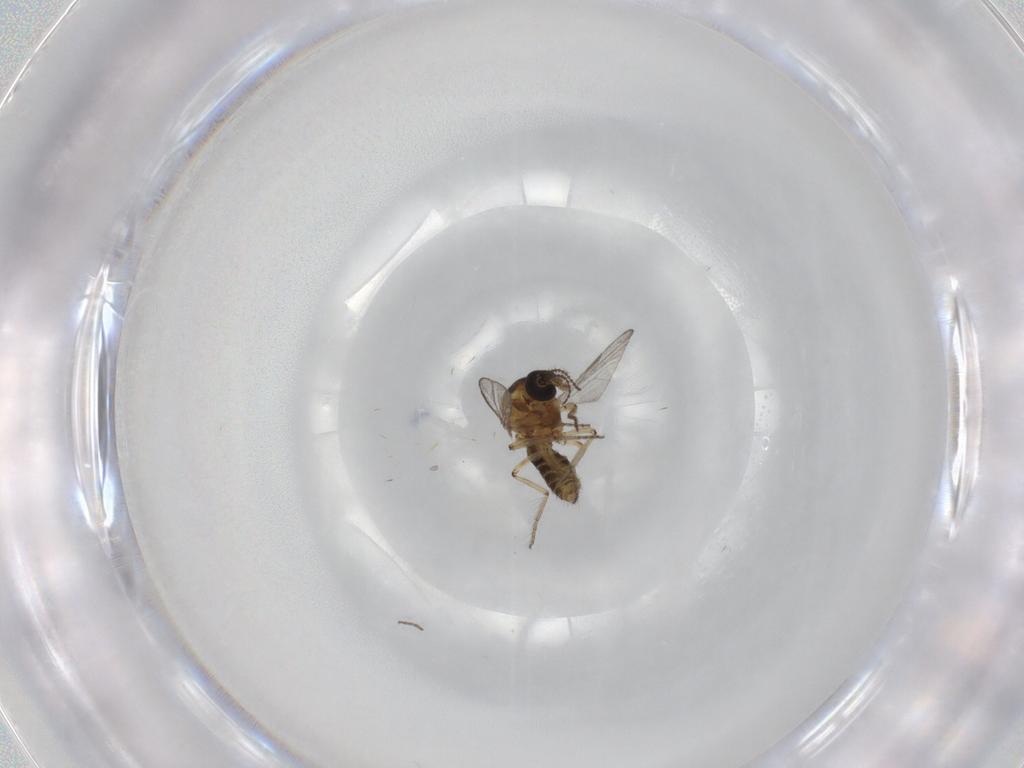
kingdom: Animalia
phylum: Arthropoda
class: Insecta
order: Diptera
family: Ceratopogonidae
